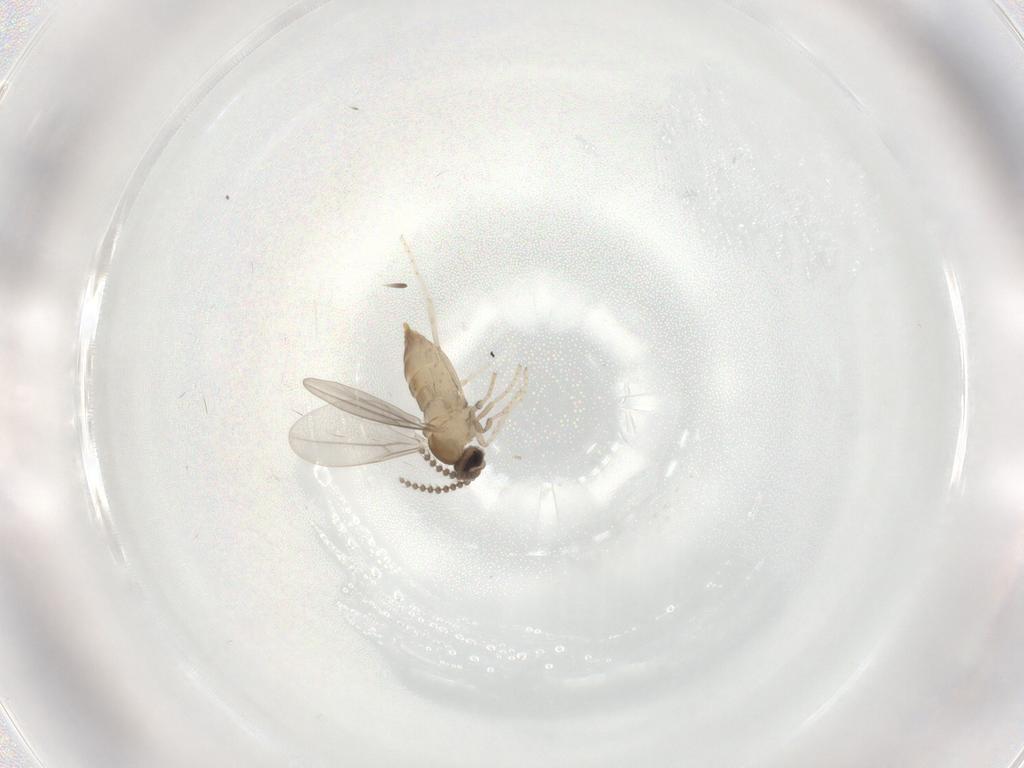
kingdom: Animalia
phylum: Arthropoda
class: Insecta
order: Diptera
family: Cecidomyiidae
